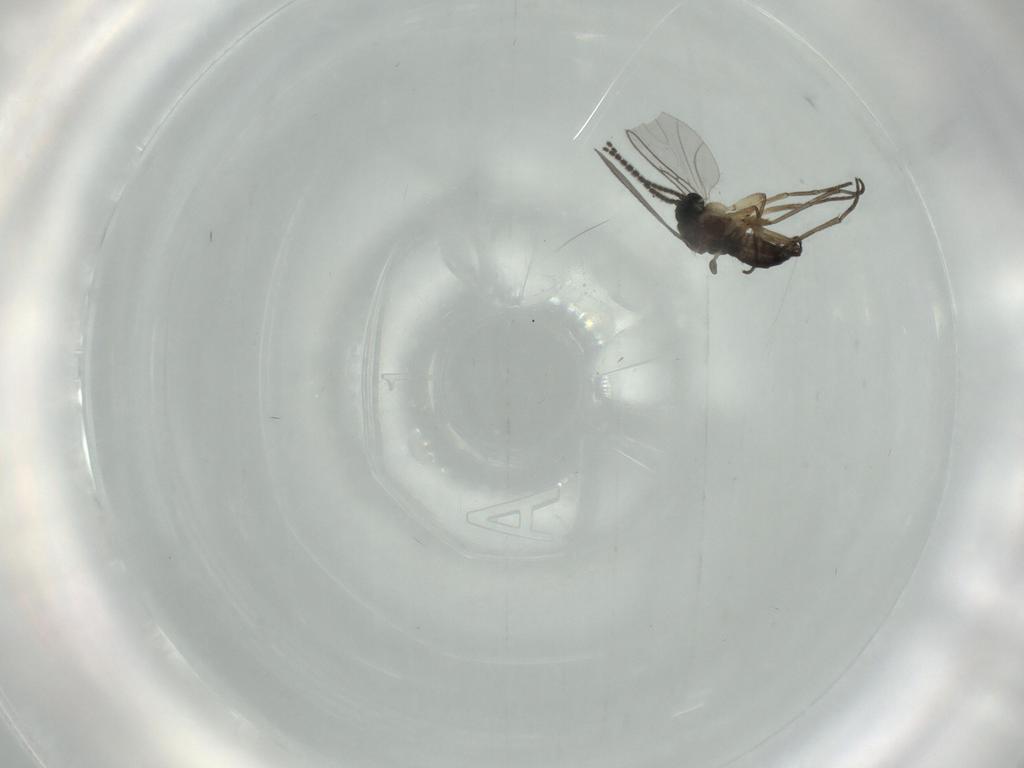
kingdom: Animalia
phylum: Arthropoda
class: Insecta
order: Diptera
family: Sciaridae
